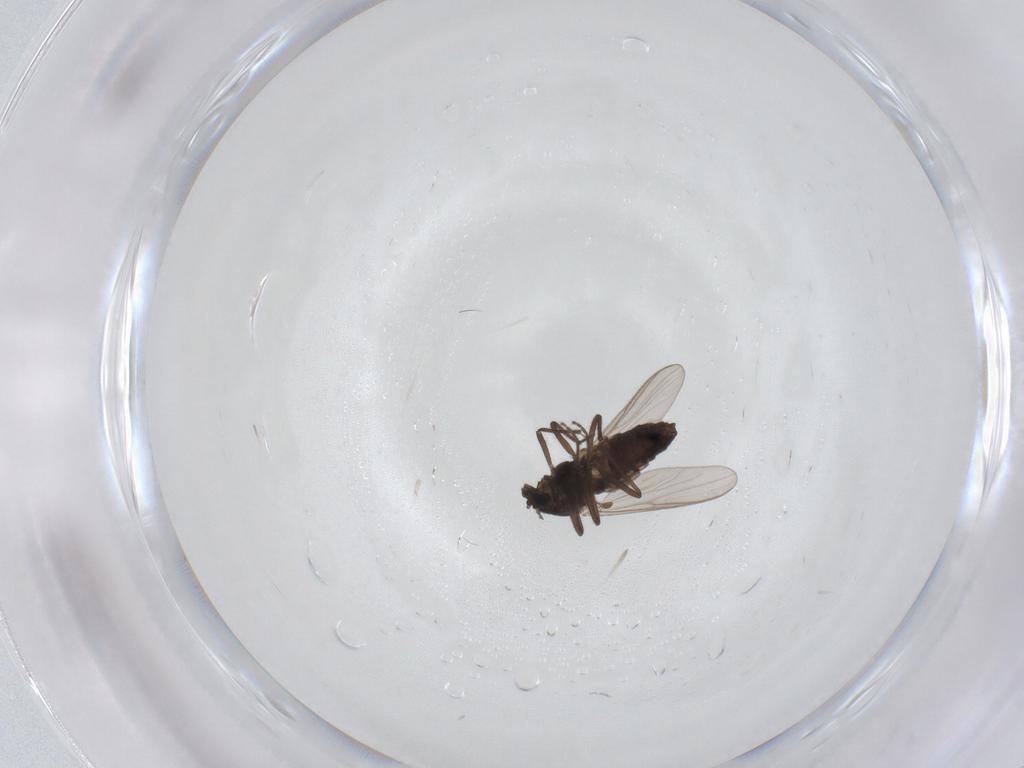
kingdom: Animalia
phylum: Arthropoda
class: Insecta
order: Diptera
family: Chironomidae
